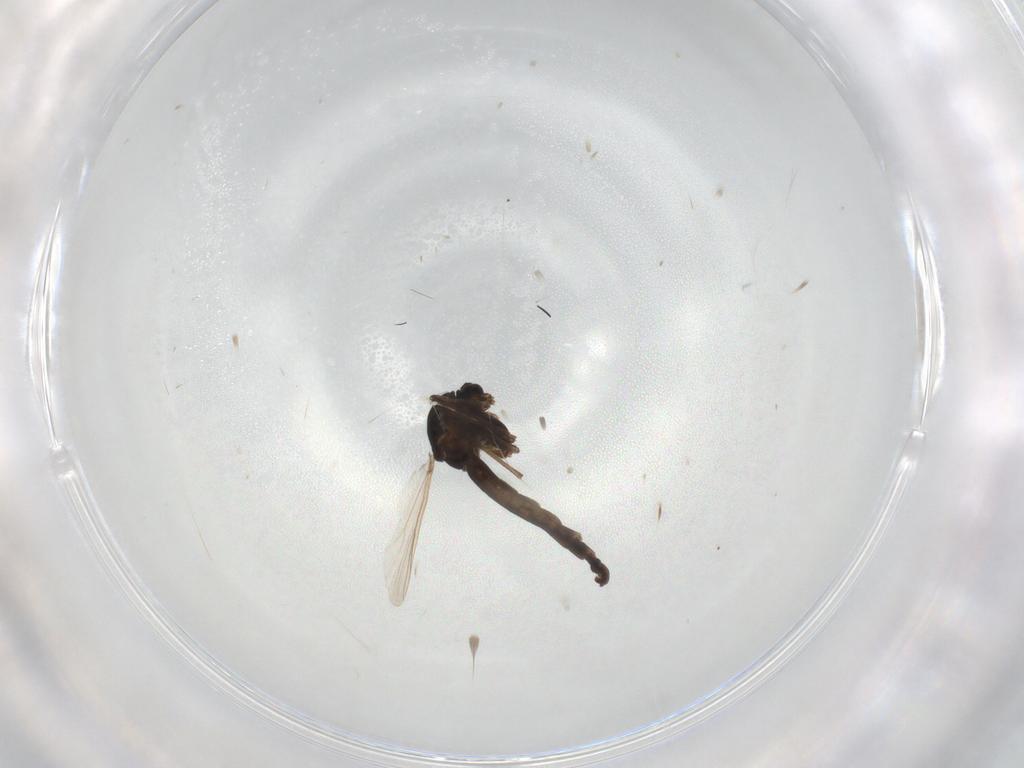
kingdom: Animalia
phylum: Arthropoda
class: Insecta
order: Diptera
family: Chironomidae
